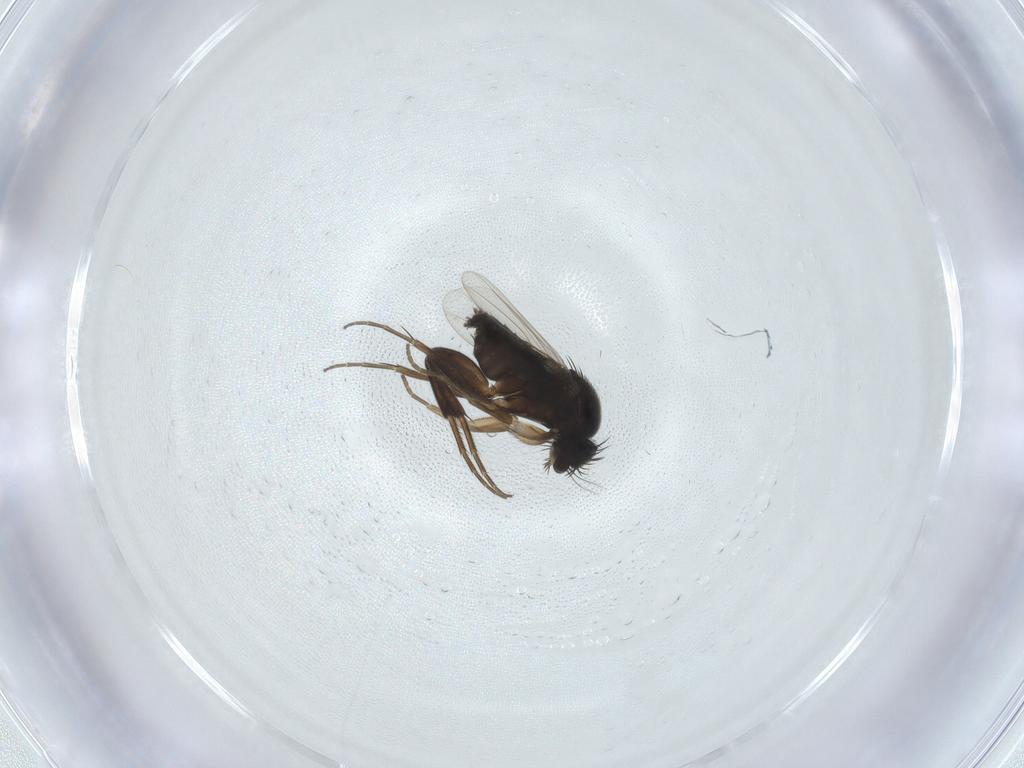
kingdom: Animalia
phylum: Arthropoda
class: Insecta
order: Diptera
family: Phoridae
